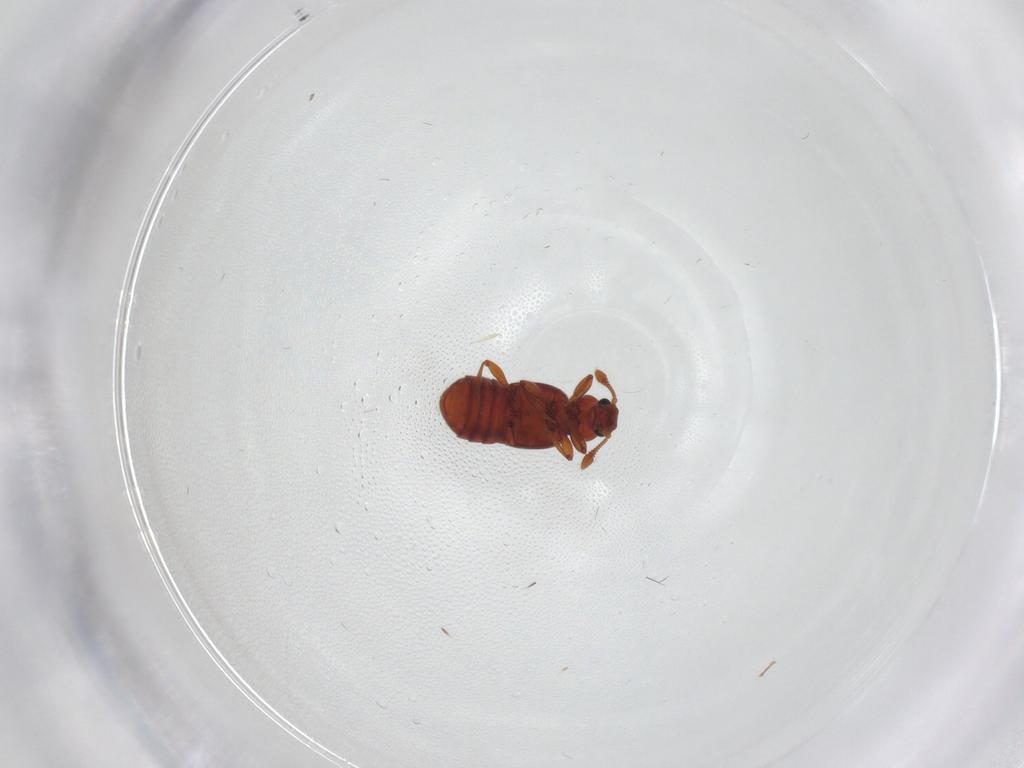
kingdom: Animalia
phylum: Arthropoda
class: Insecta
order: Coleoptera
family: Staphylinidae
